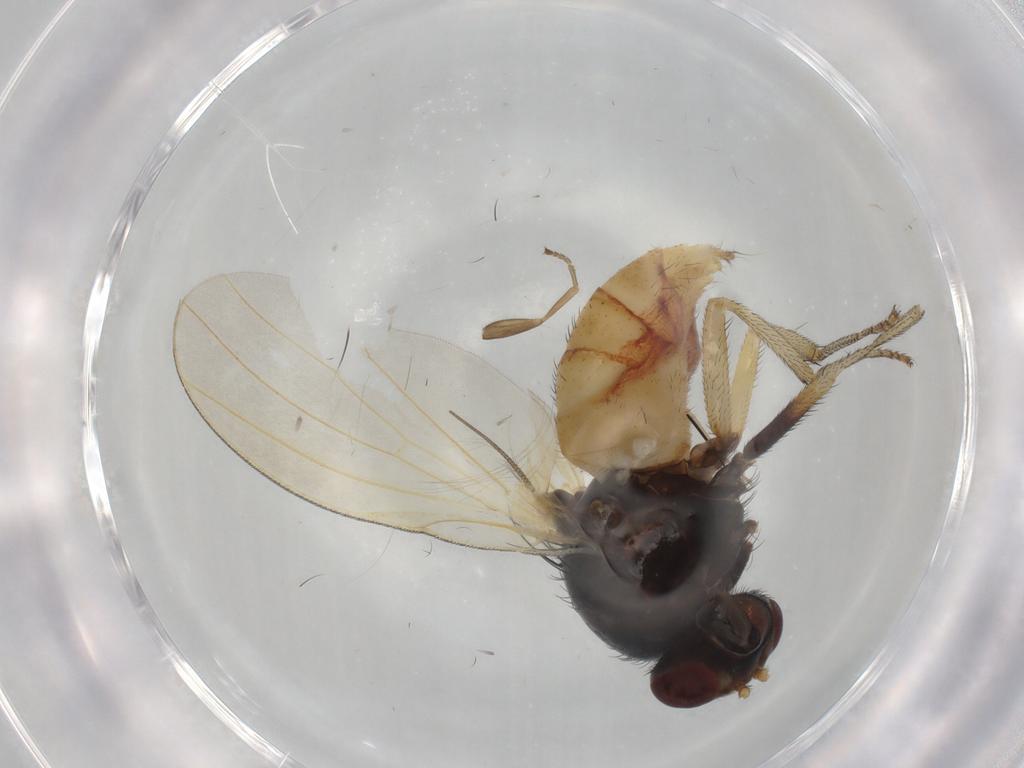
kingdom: Animalia
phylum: Arthropoda
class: Insecta
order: Diptera
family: Phoridae
